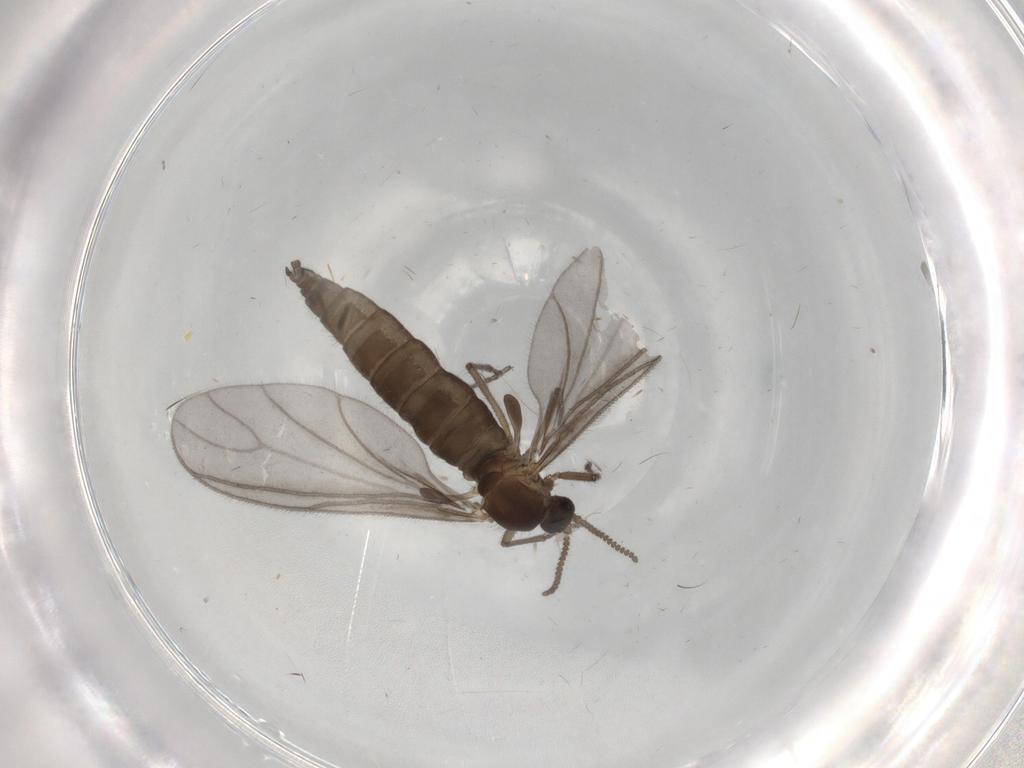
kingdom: Animalia
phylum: Arthropoda
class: Insecta
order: Diptera
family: Sciaridae
